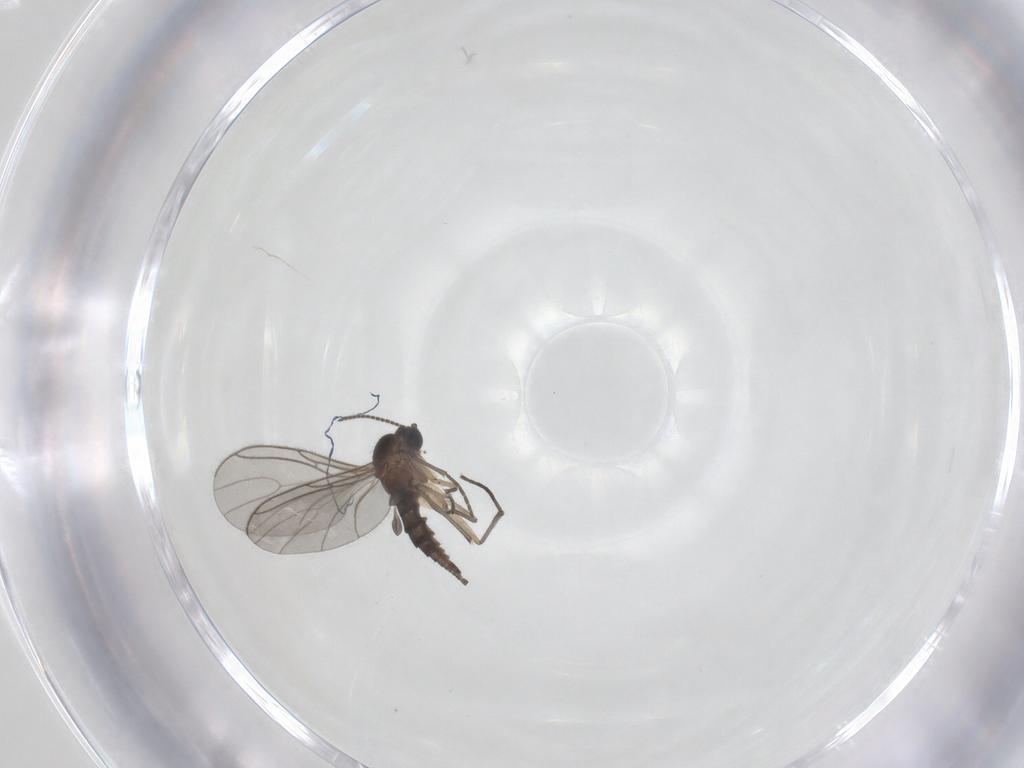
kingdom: Animalia
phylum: Arthropoda
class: Insecta
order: Diptera
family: Sciaridae
